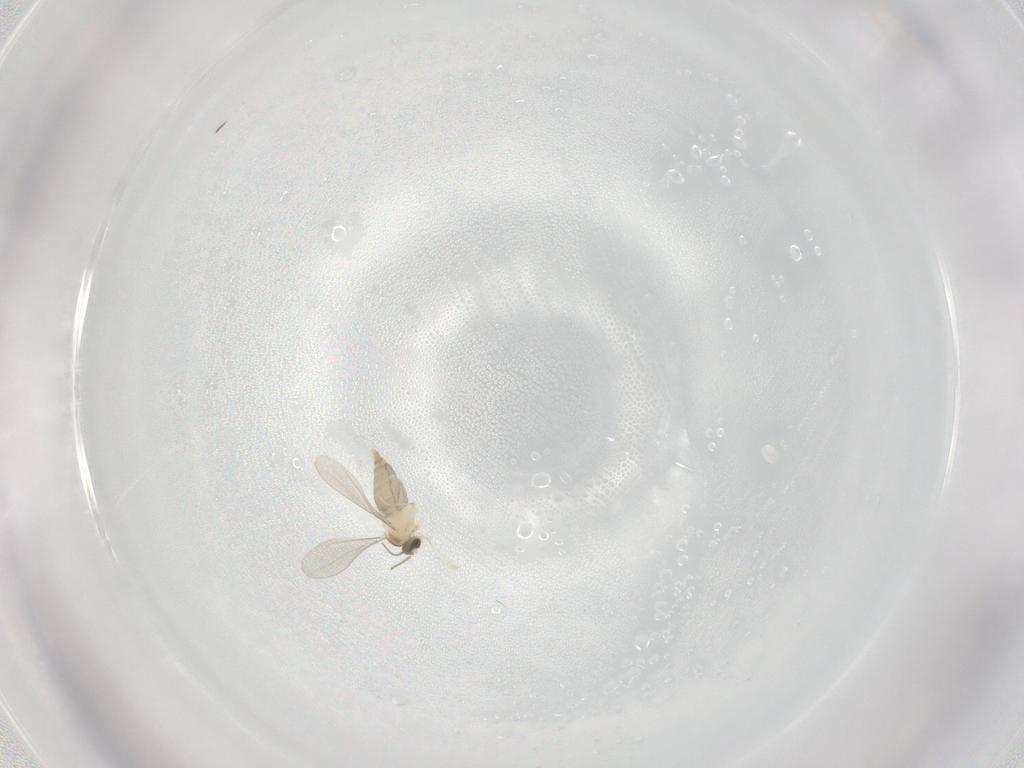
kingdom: Animalia
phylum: Arthropoda
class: Insecta
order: Diptera
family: Cecidomyiidae
